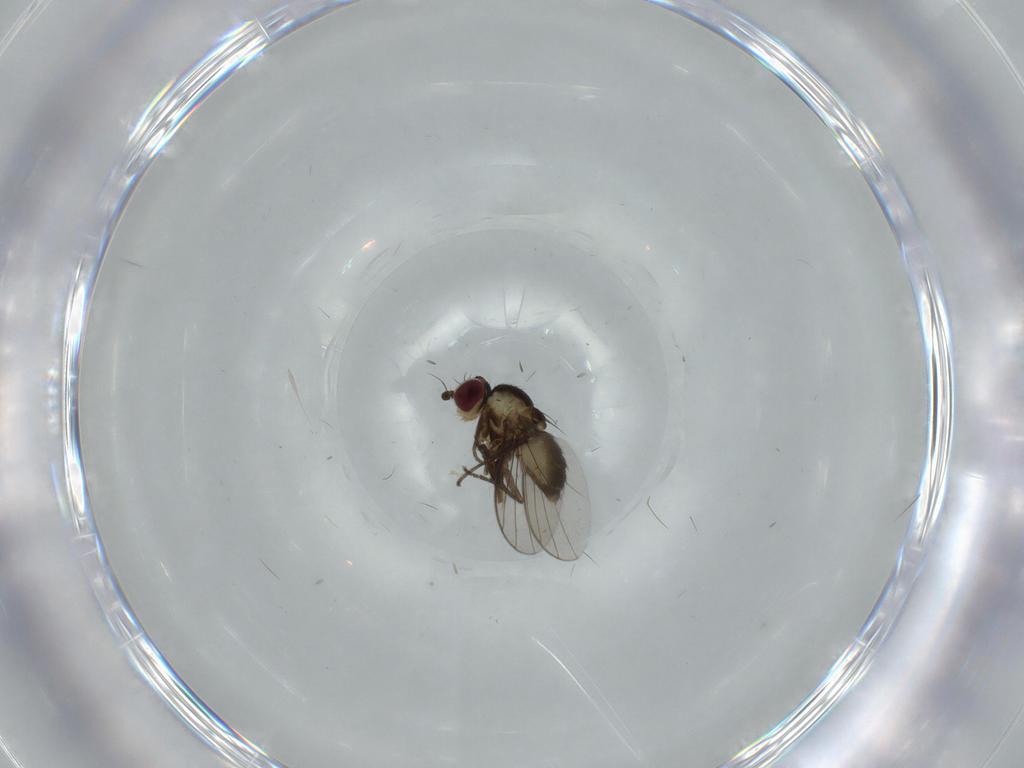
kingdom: Animalia
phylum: Arthropoda
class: Insecta
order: Diptera
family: Agromyzidae
